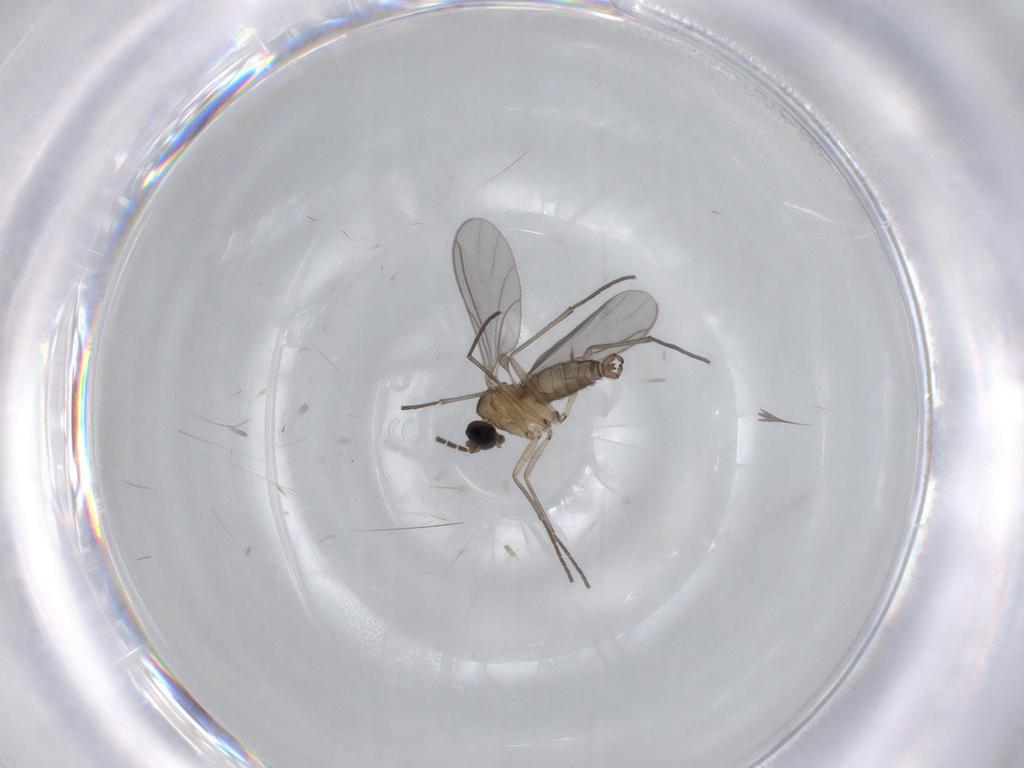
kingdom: Animalia
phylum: Arthropoda
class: Insecta
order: Diptera
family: Sciaridae
